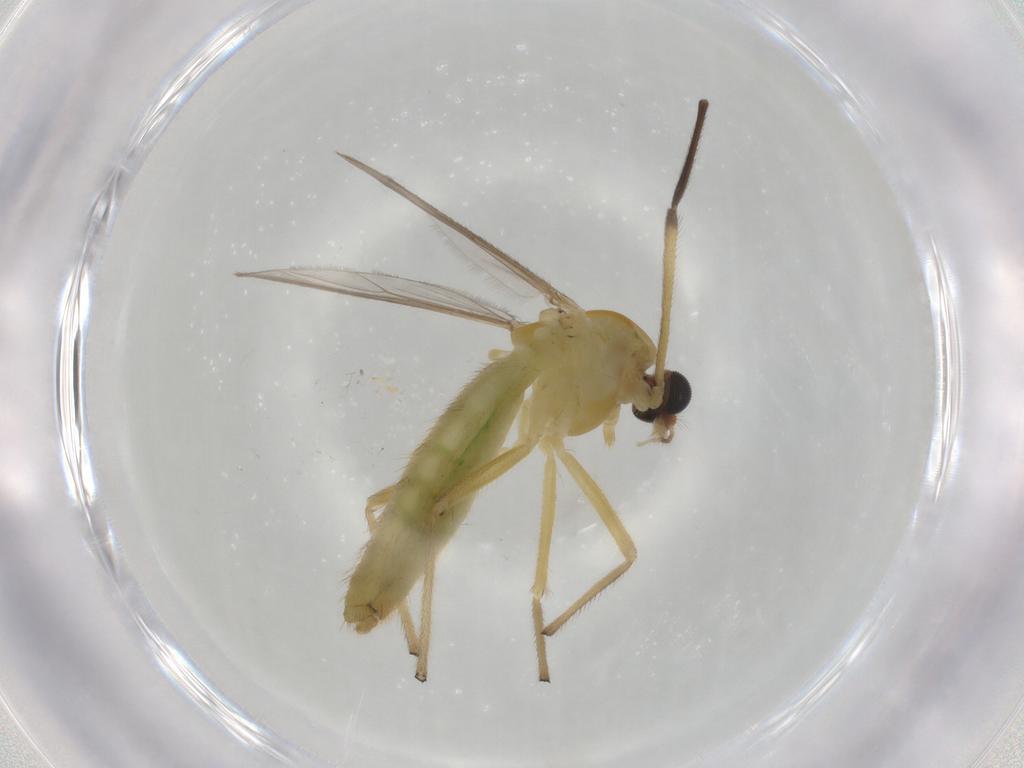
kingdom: Animalia
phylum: Arthropoda
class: Insecta
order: Diptera
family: Chironomidae
